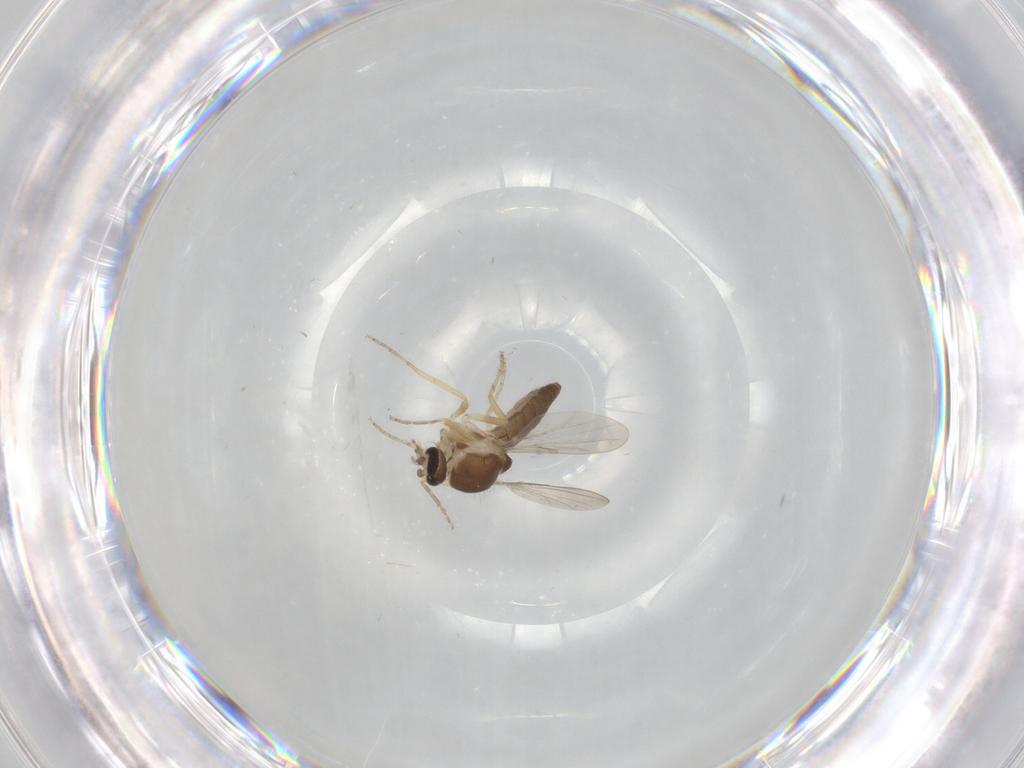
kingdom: Animalia
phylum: Arthropoda
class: Insecta
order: Diptera
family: Ceratopogonidae
